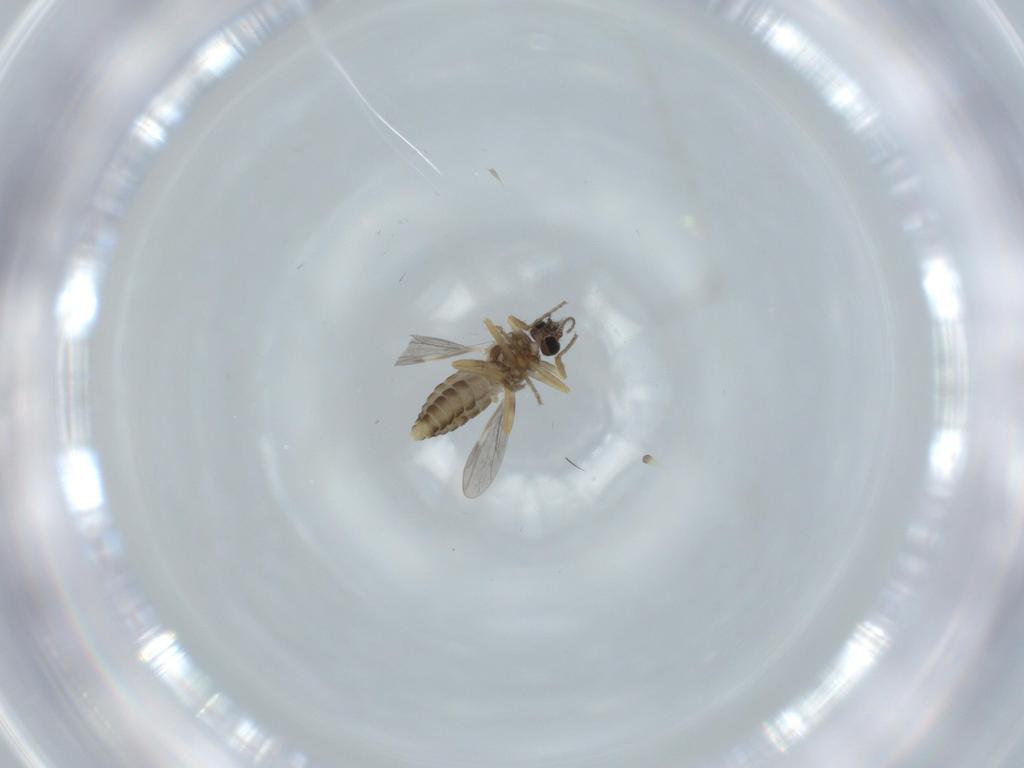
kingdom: Animalia
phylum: Arthropoda
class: Insecta
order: Diptera
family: Ceratopogonidae
